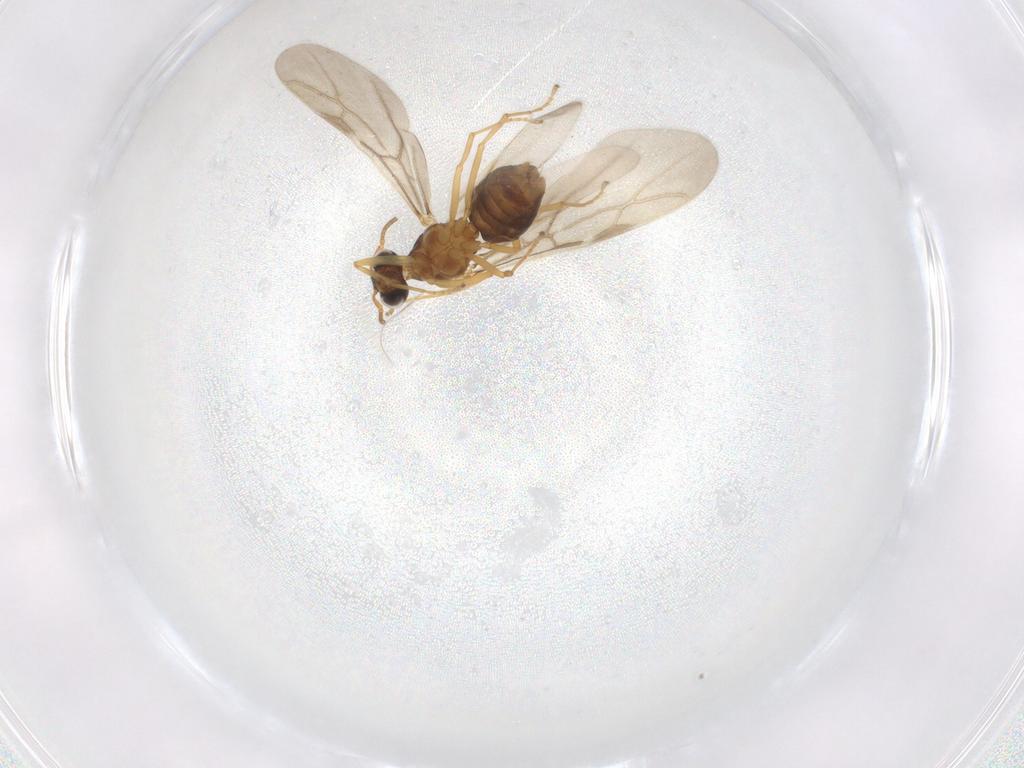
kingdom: Animalia
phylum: Arthropoda
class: Insecta
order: Hymenoptera
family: Formicidae
